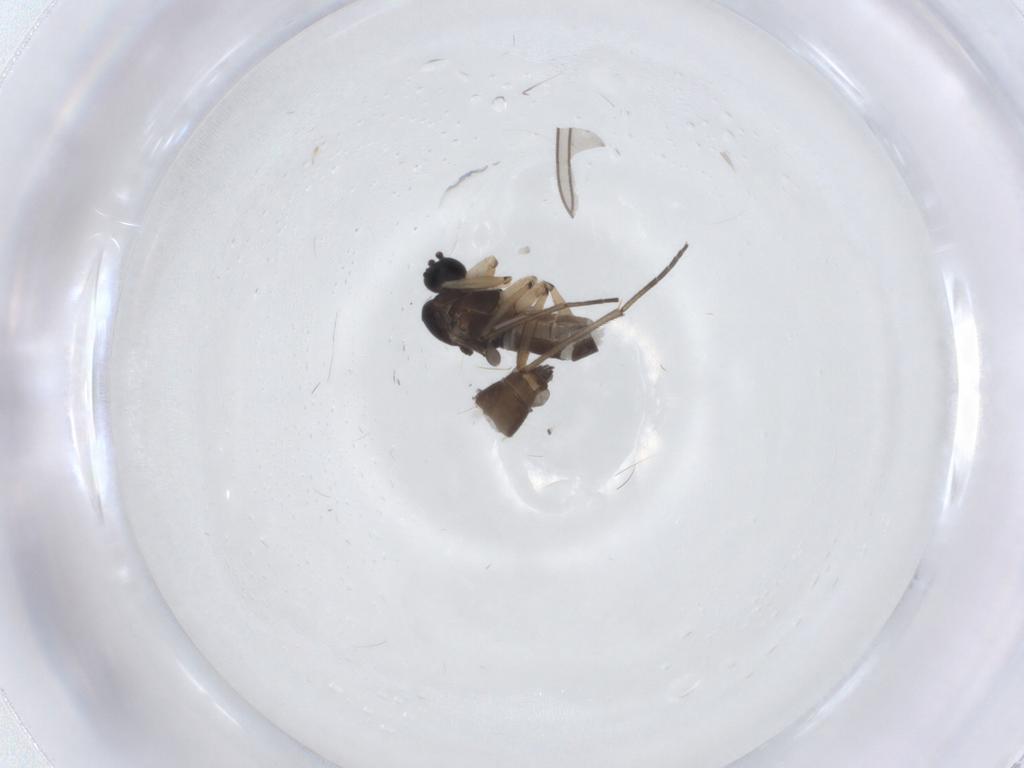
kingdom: Animalia
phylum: Arthropoda
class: Insecta
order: Diptera
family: Sciaridae
